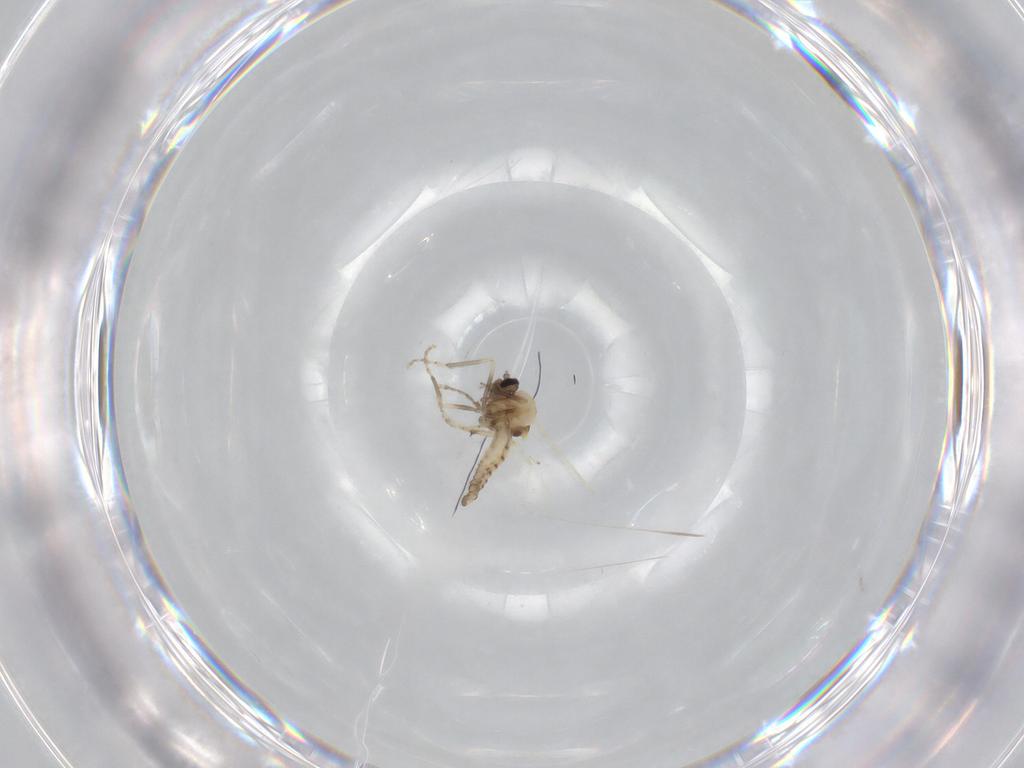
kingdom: Animalia
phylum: Arthropoda
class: Insecta
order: Diptera
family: Ceratopogonidae
